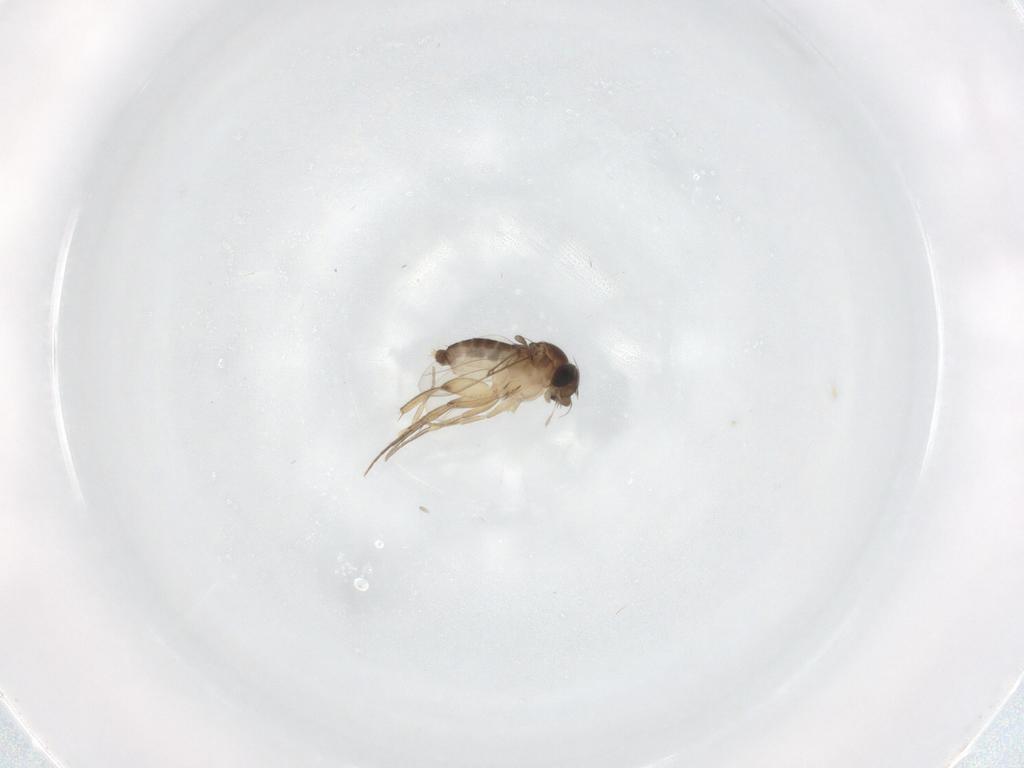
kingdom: Animalia
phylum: Arthropoda
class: Insecta
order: Diptera
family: Phoridae
